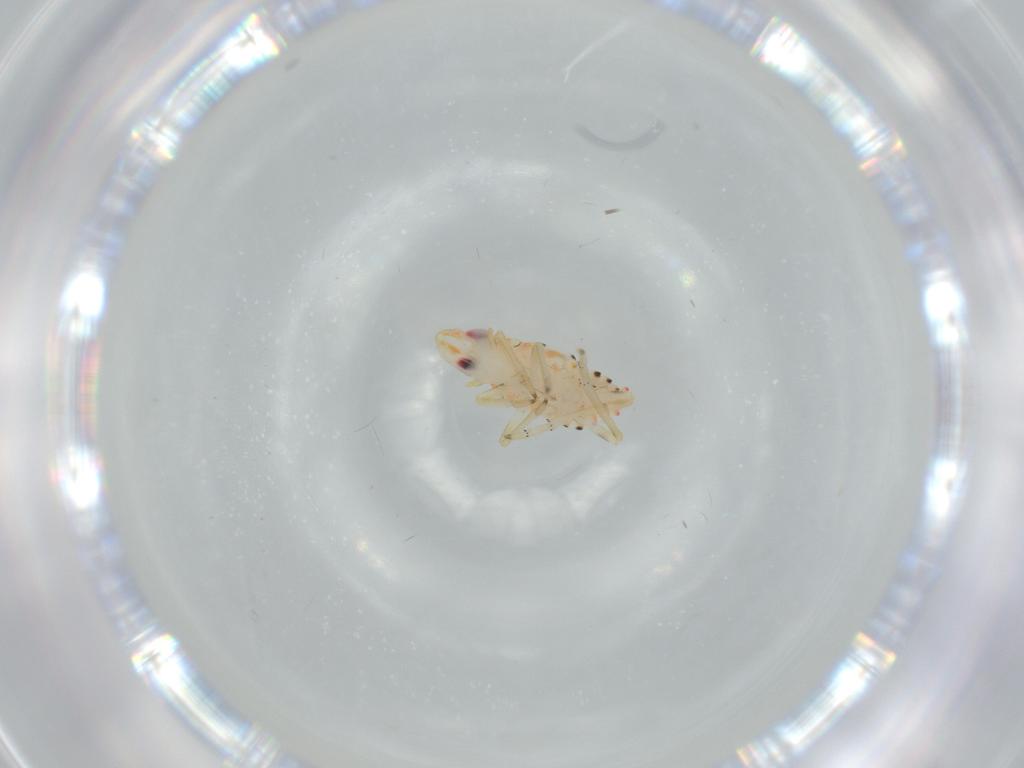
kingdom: Animalia
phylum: Arthropoda
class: Insecta
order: Hemiptera
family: Tropiduchidae
